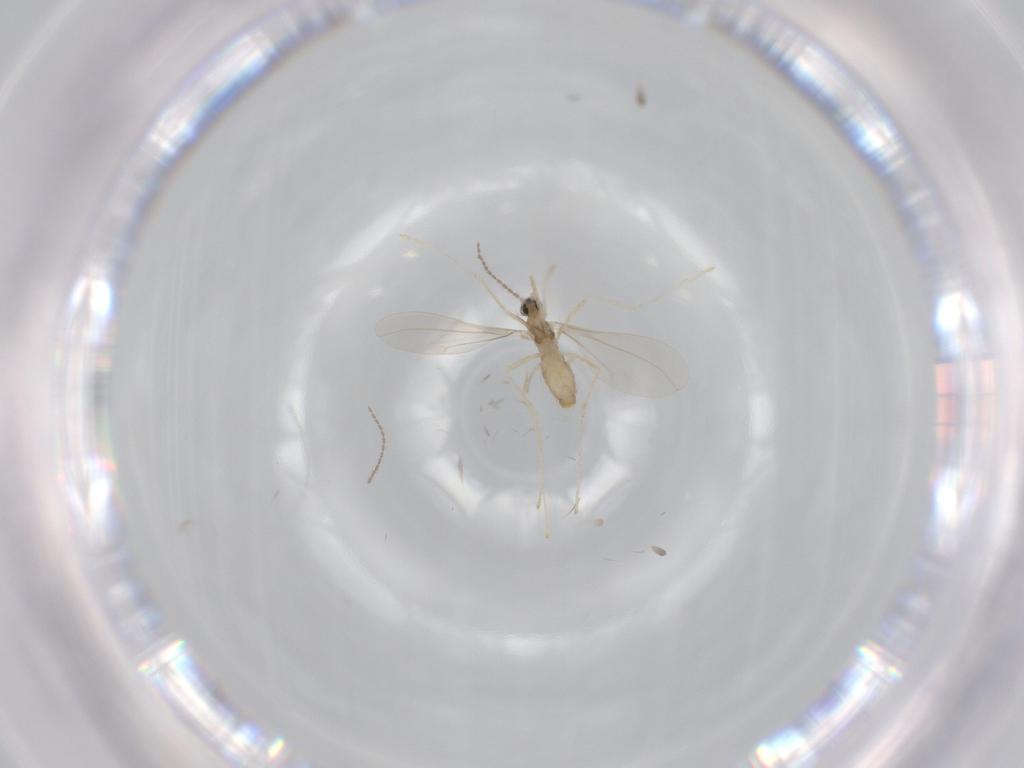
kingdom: Animalia
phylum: Arthropoda
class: Insecta
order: Diptera
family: Cecidomyiidae
